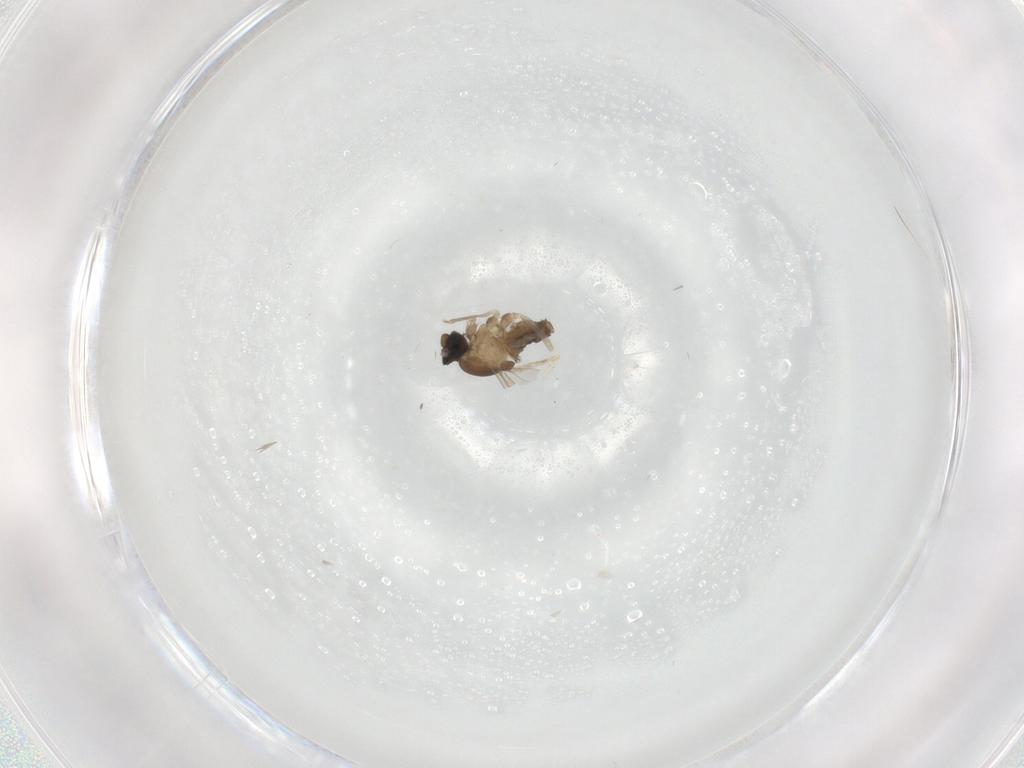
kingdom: Animalia
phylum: Arthropoda
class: Insecta
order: Diptera
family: Cecidomyiidae
